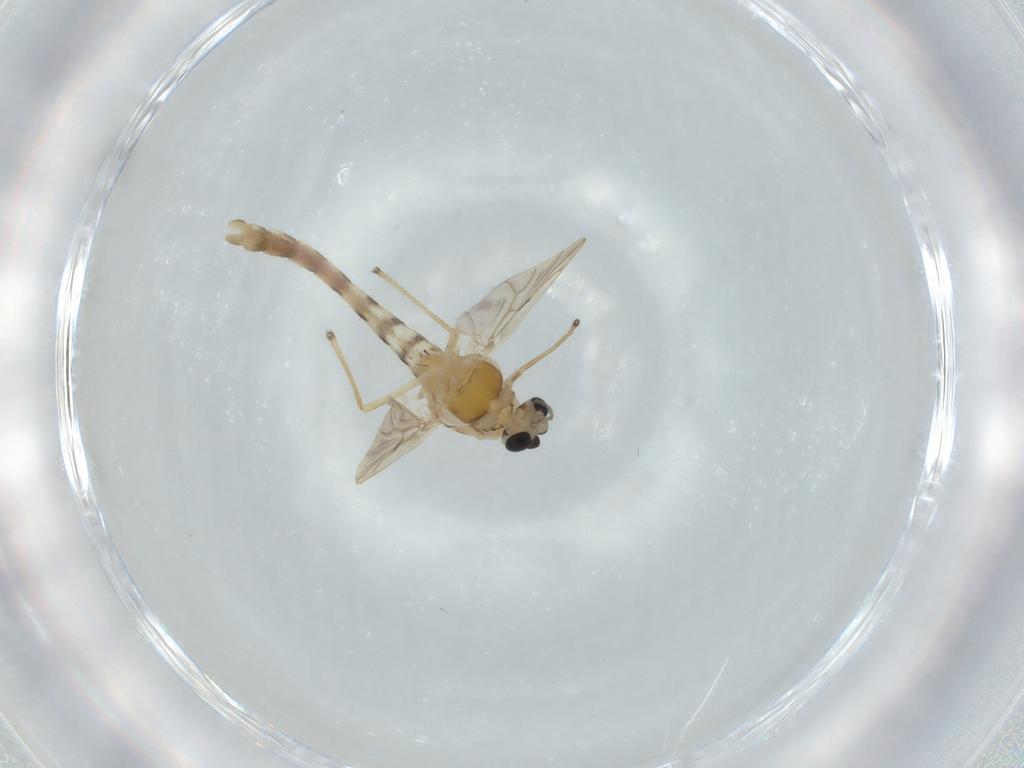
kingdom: Animalia
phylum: Arthropoda
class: Insecta
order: Diptera
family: Chironomidae
